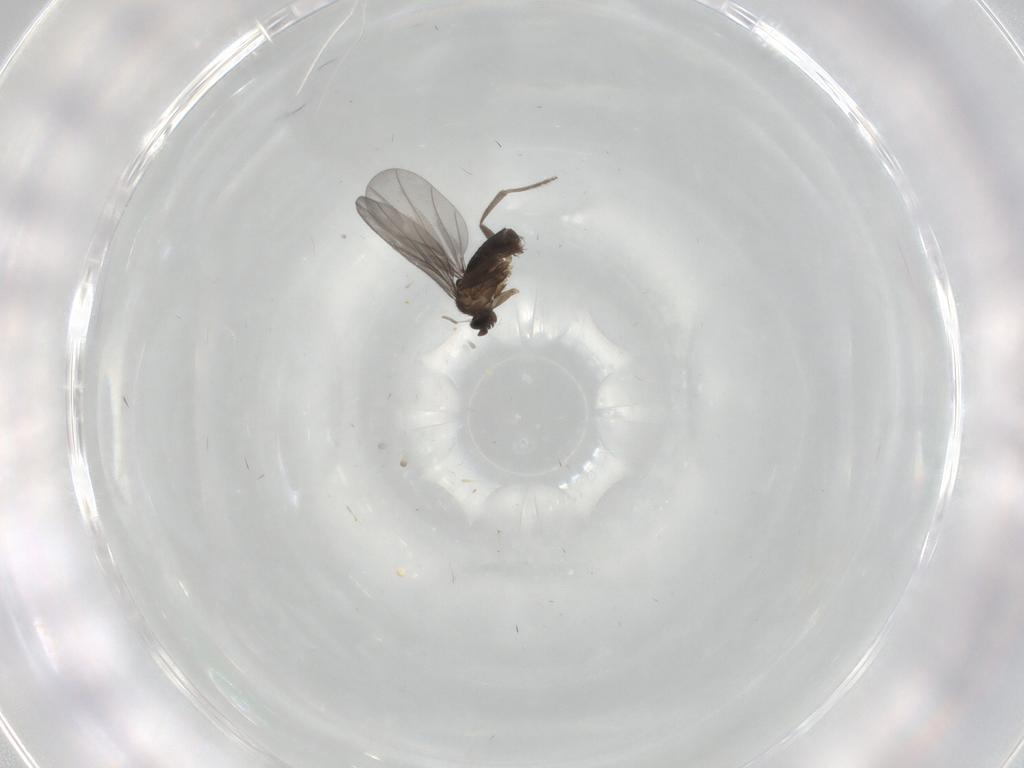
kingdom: Animalia
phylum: Arthropoda
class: Insecta
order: Diptera
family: Phoridae
